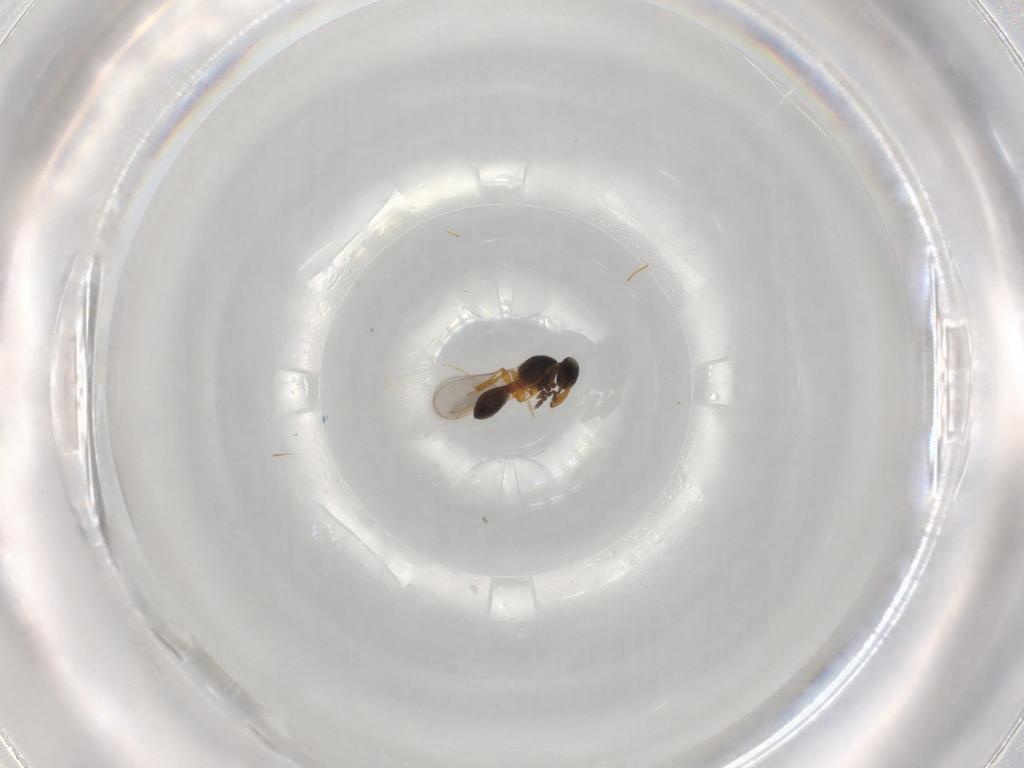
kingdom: Animalia
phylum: Arthropoda
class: Insecta
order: Hymenoptera
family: Platygastridae
